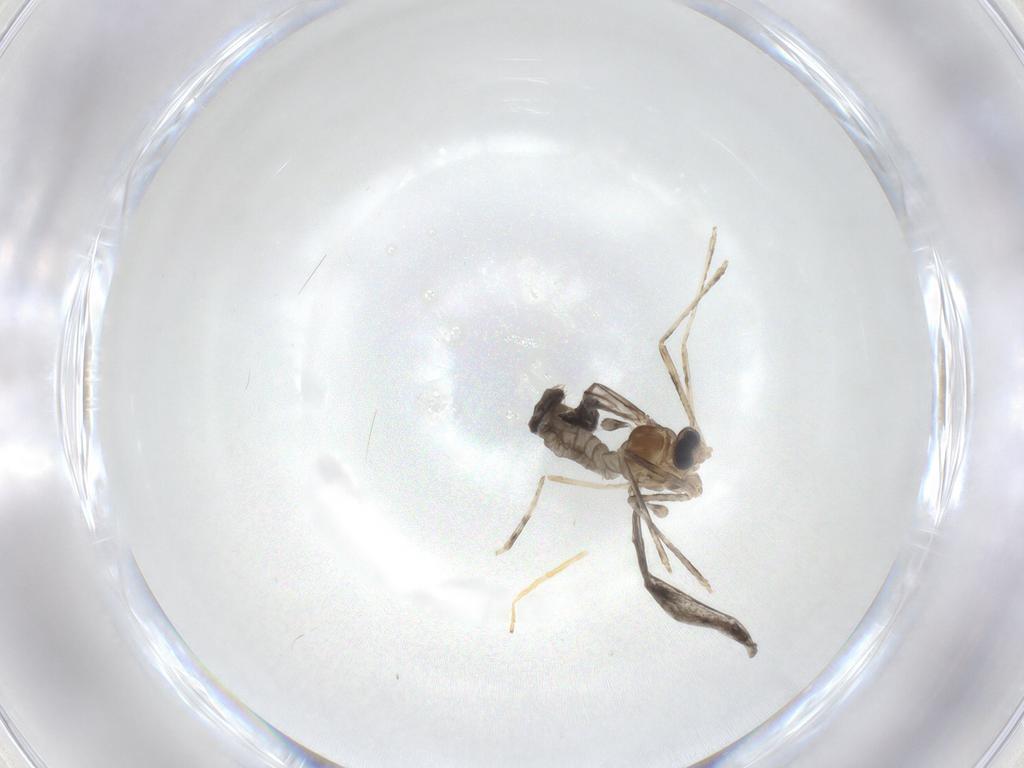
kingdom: Animalia
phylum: Arthropoda
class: Insecta
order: Diptera
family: Cecidomyiidae
